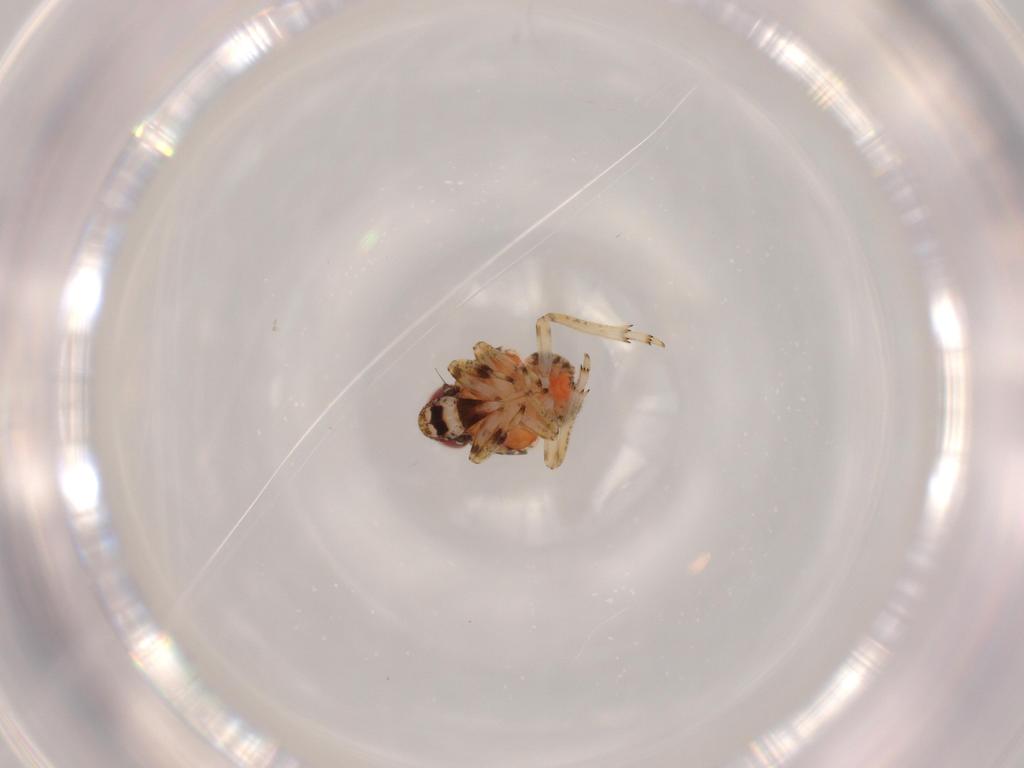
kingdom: Animalia
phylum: Arthropoda
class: Insecta
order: Hemiptera
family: Issidae
